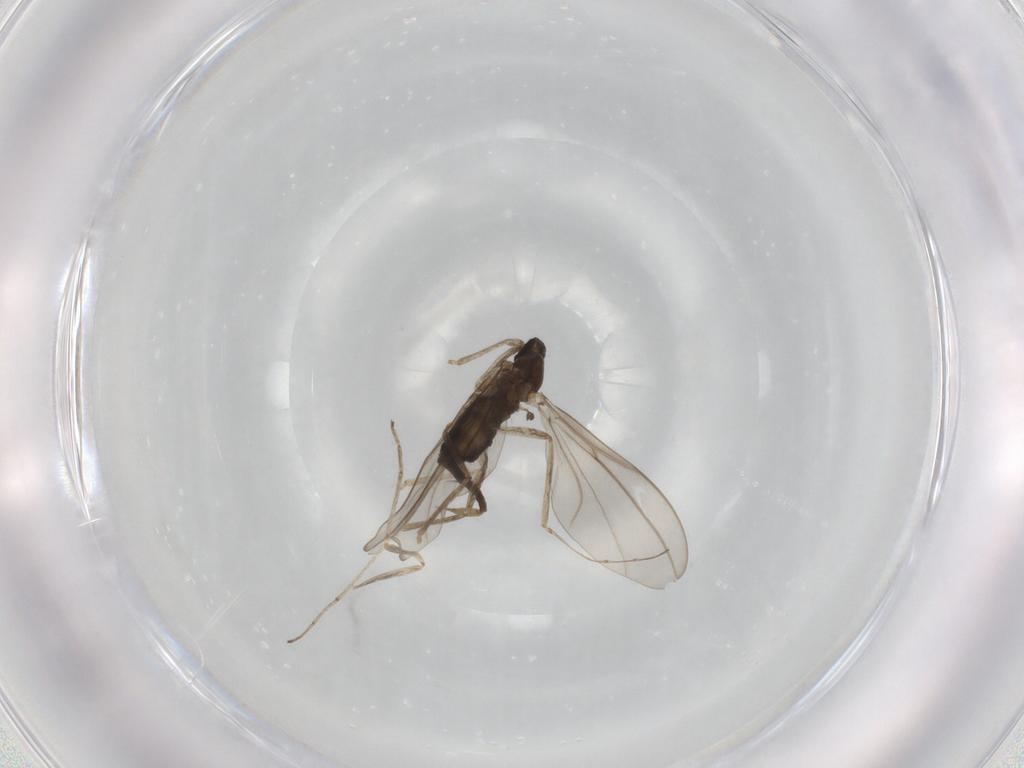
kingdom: Animalia
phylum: Arthropoda
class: Insecta
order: Diptera
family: Cecidomyiidae
